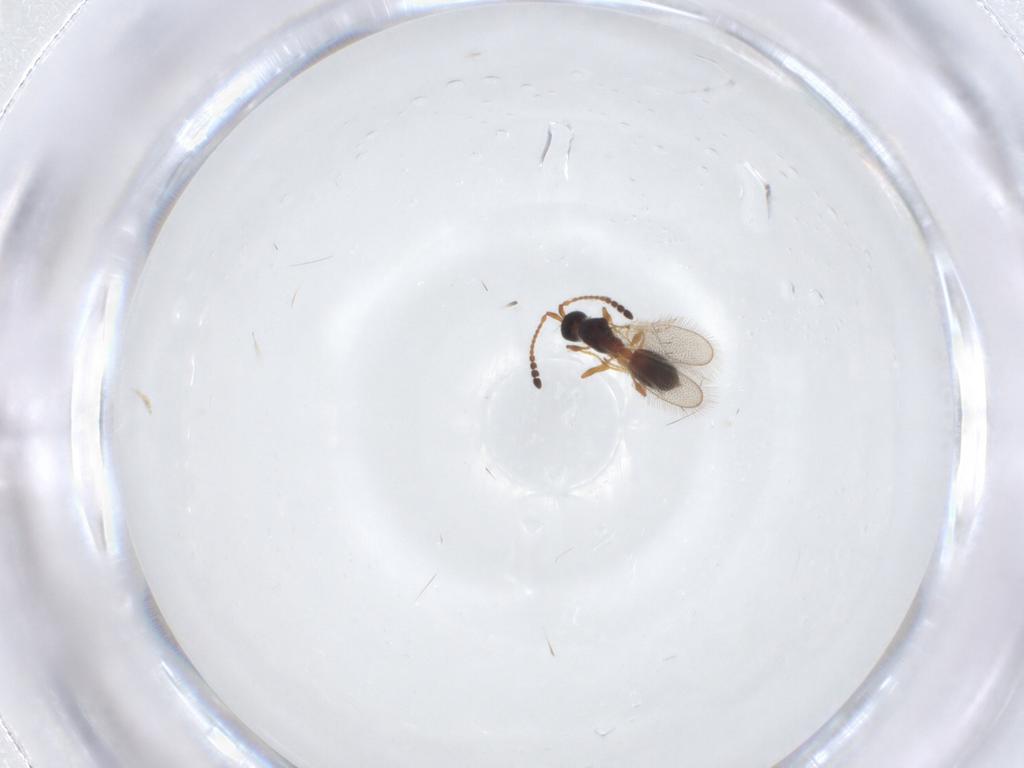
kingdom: Animalia
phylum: Arthropoda
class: Insecta
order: Hymenoptera
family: Diapriidae
